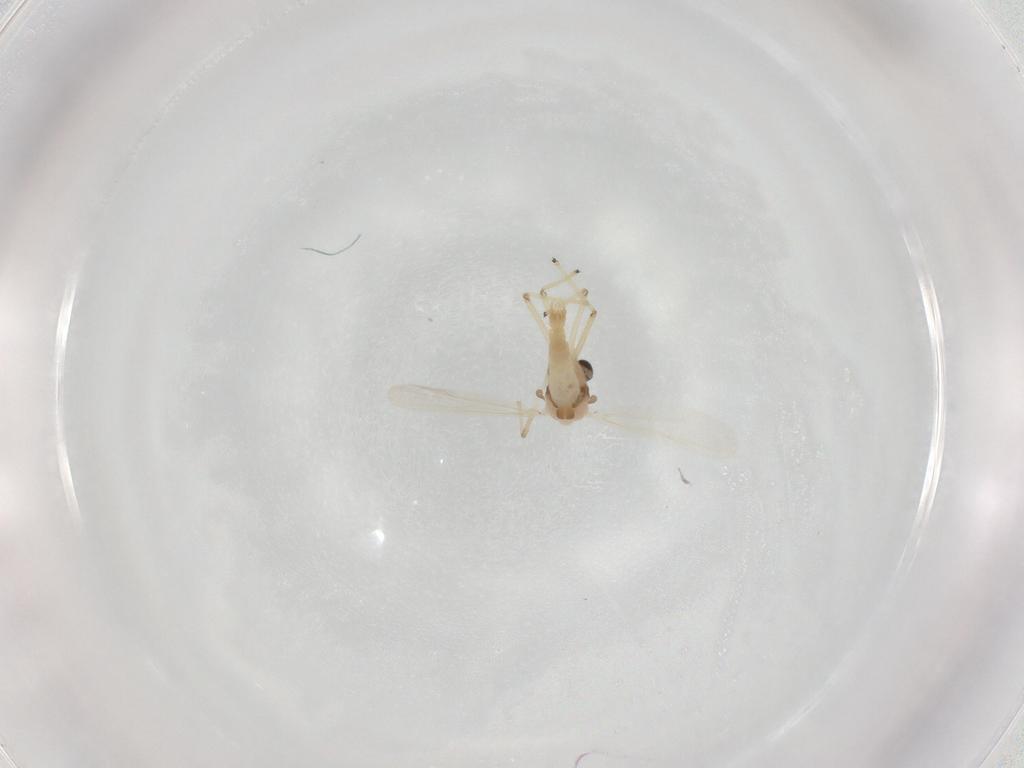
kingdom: Animalia
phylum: Arthropoda
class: Insecta
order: Diptera
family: Chironomidae
